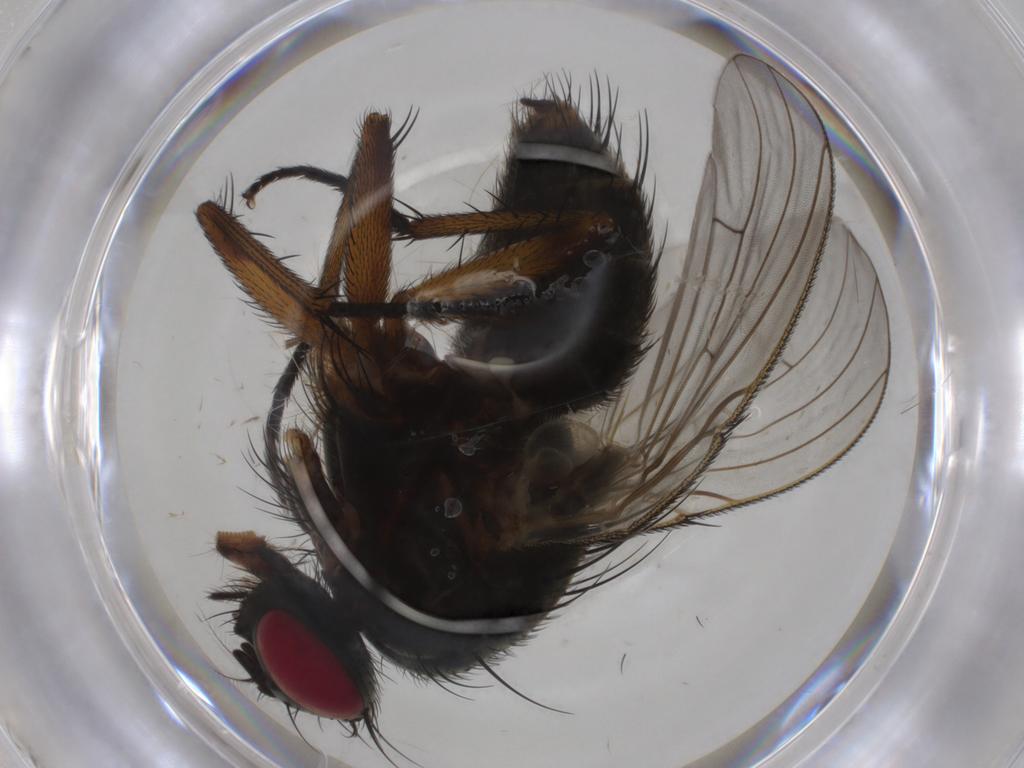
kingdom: Animalia
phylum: Arthropoda
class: Insecta
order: Diptera
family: Muscidae
